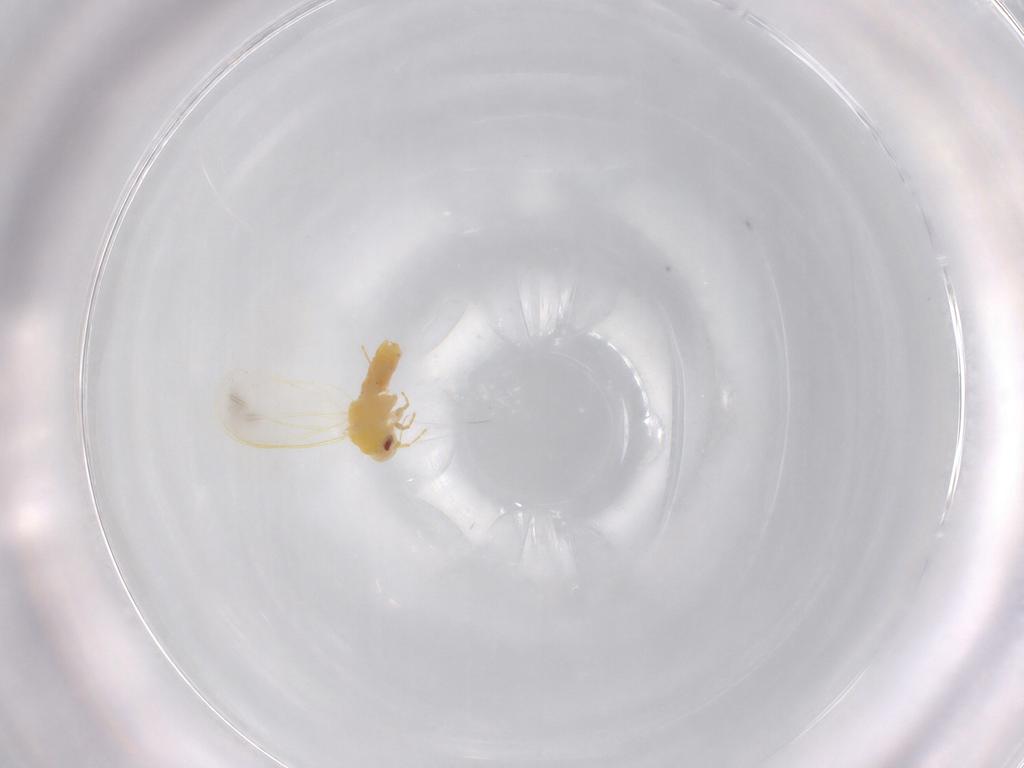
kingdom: Animalia
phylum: Arthropoda
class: Insecta
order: Hemiptera
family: Aleyrodidae
